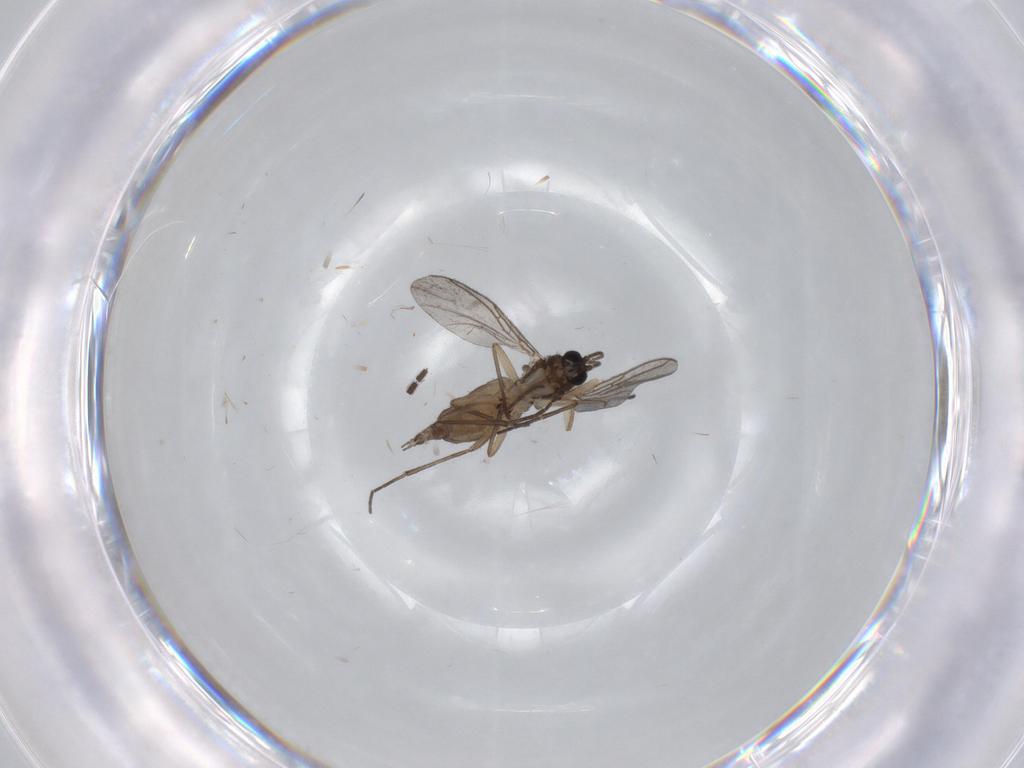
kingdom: Animalia
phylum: Arthropoda
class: Insecta
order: Diptera
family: Sciaridae
